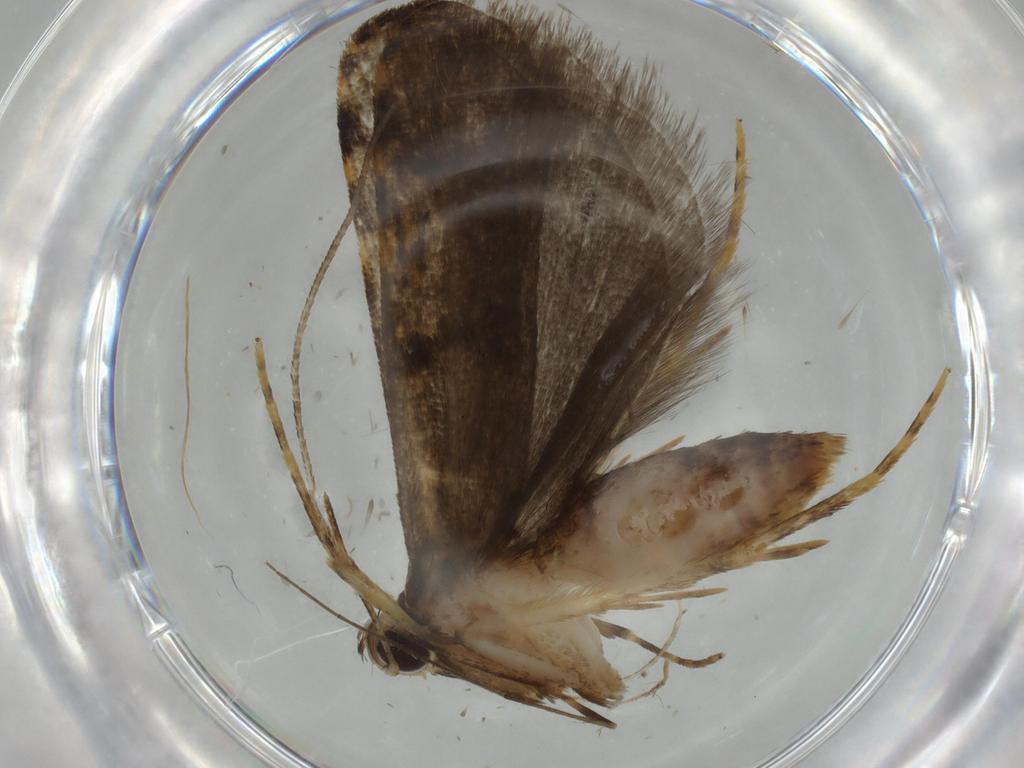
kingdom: Animalia
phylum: Arthropoda
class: Insecta
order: Lepidoptera
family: Autostichidae
